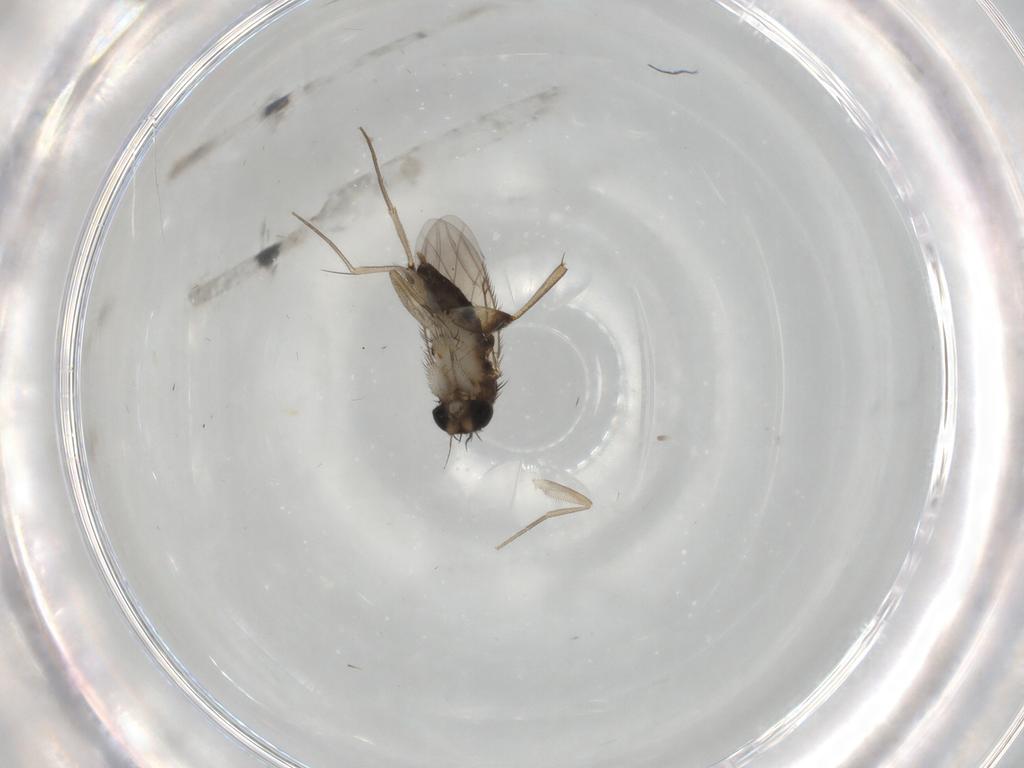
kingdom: Animalia
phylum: Arthropoda
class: Insecta
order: Diptera
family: Phoridae
